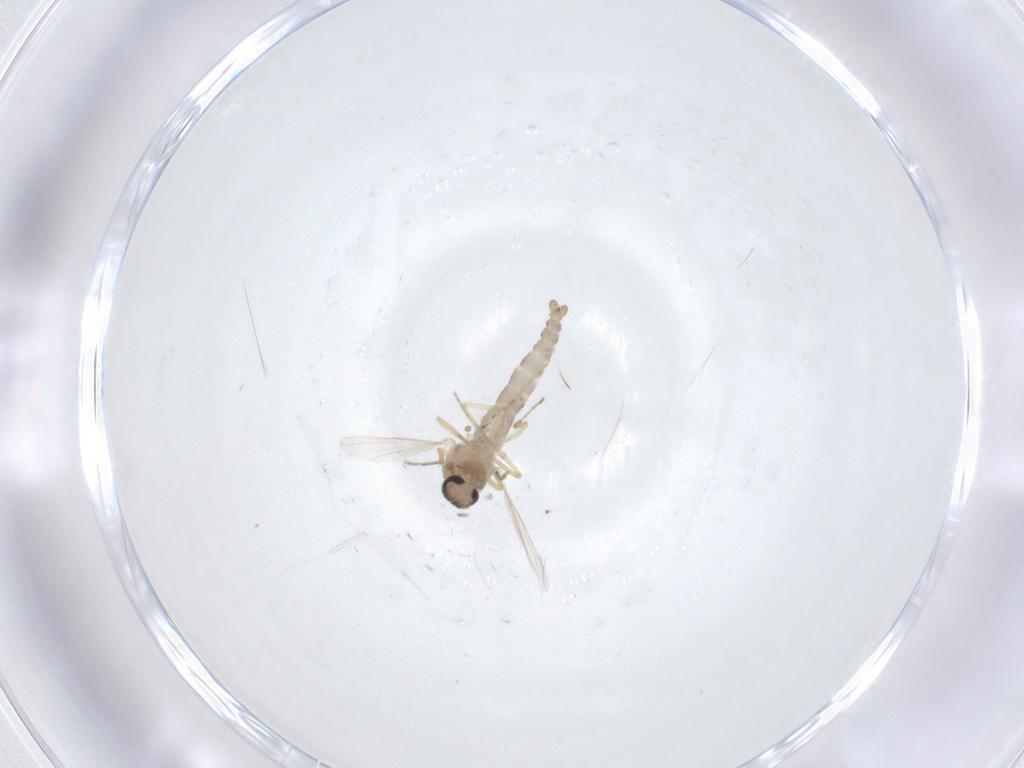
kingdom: Animalia
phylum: Arthropoda
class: Insecta
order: Diptera
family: Ceratopogonidae
